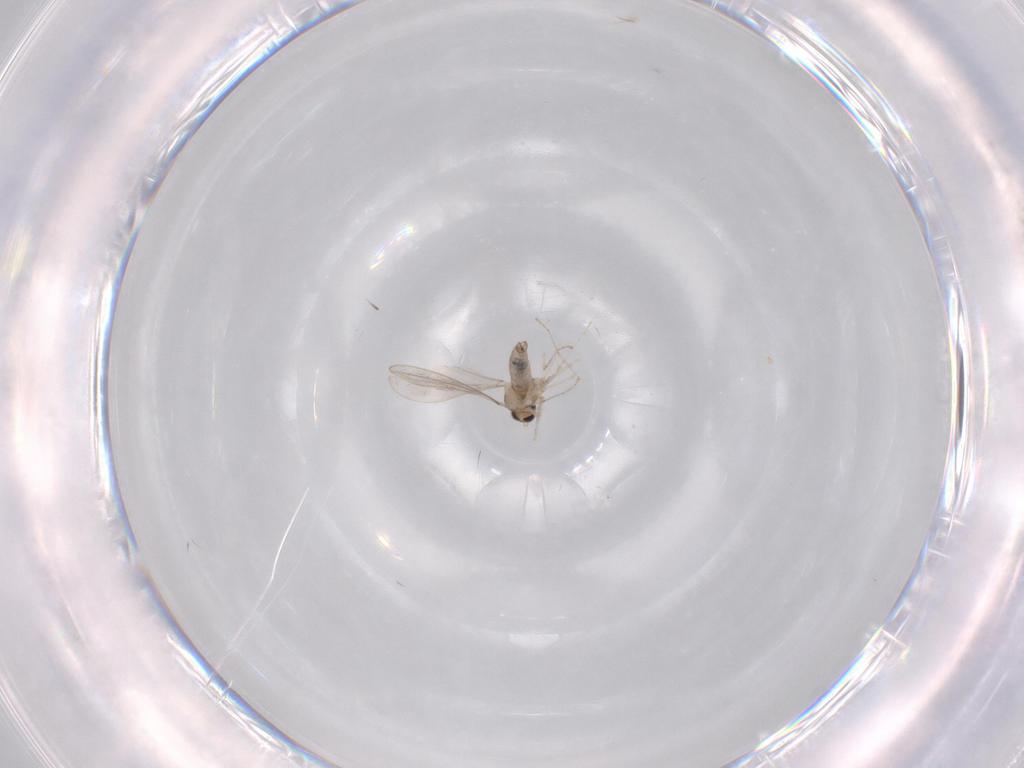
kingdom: Animalia
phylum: Arthropoda
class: Insecta
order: Diptera
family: Cecidomyiidae
